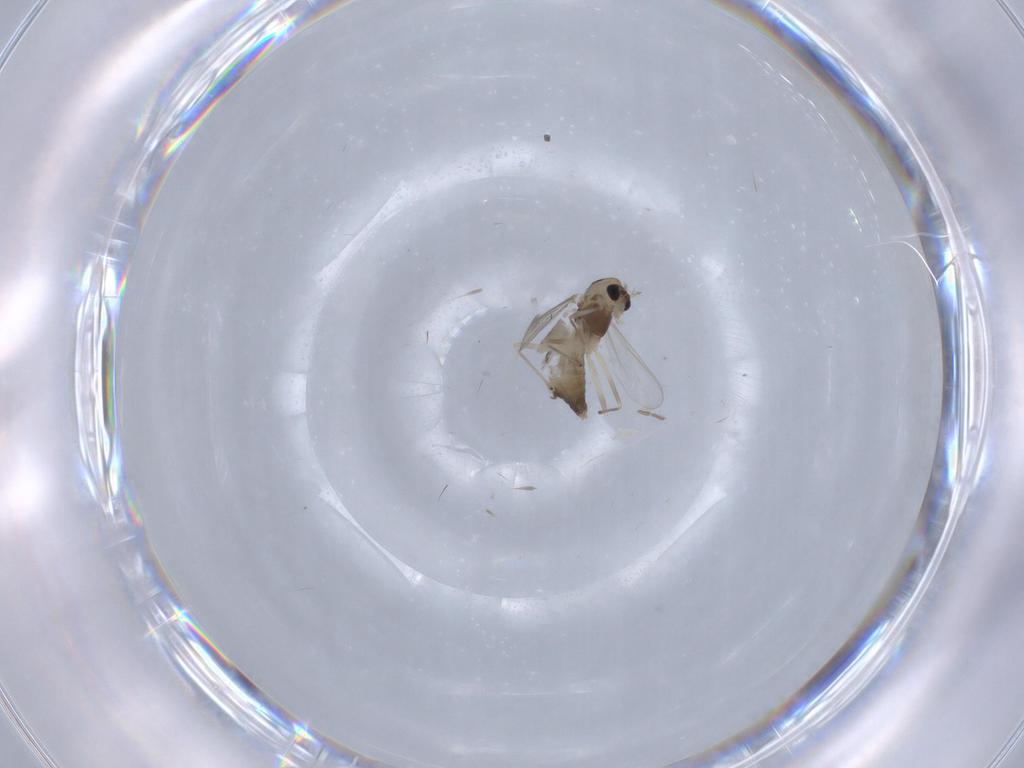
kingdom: Animalia
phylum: Arthropoda
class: Insecta
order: Diptera
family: Chironomidae
